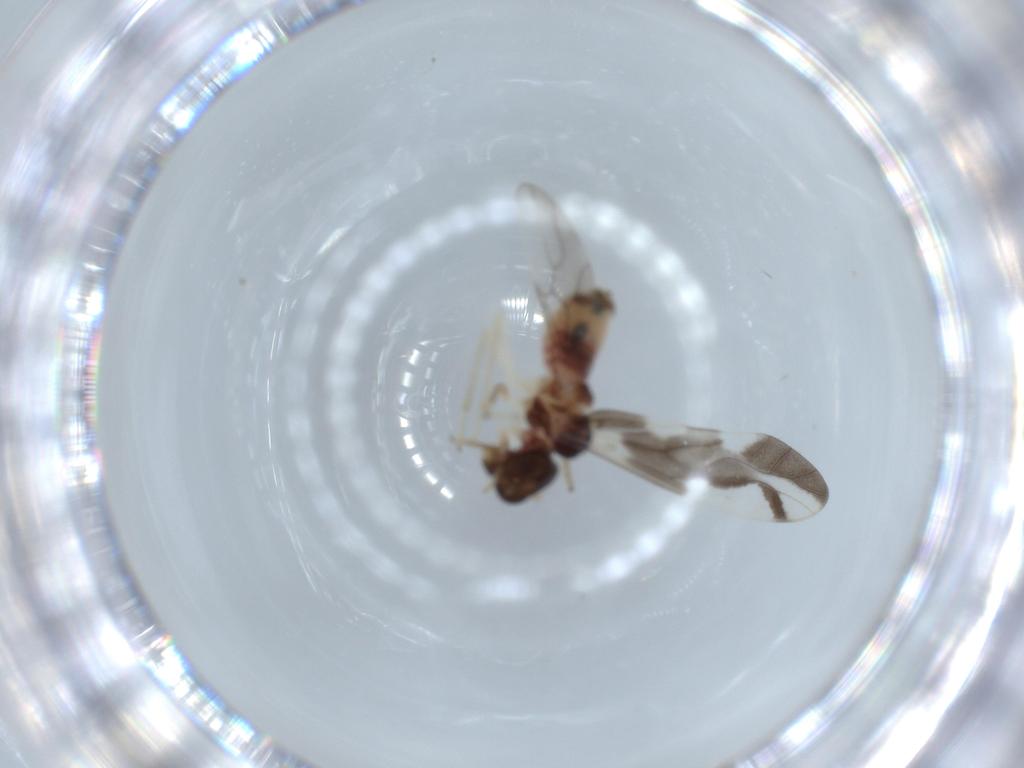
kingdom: Animalia
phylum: Arthropoda
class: Insecta
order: Psocodea
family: Caeciliusidae
